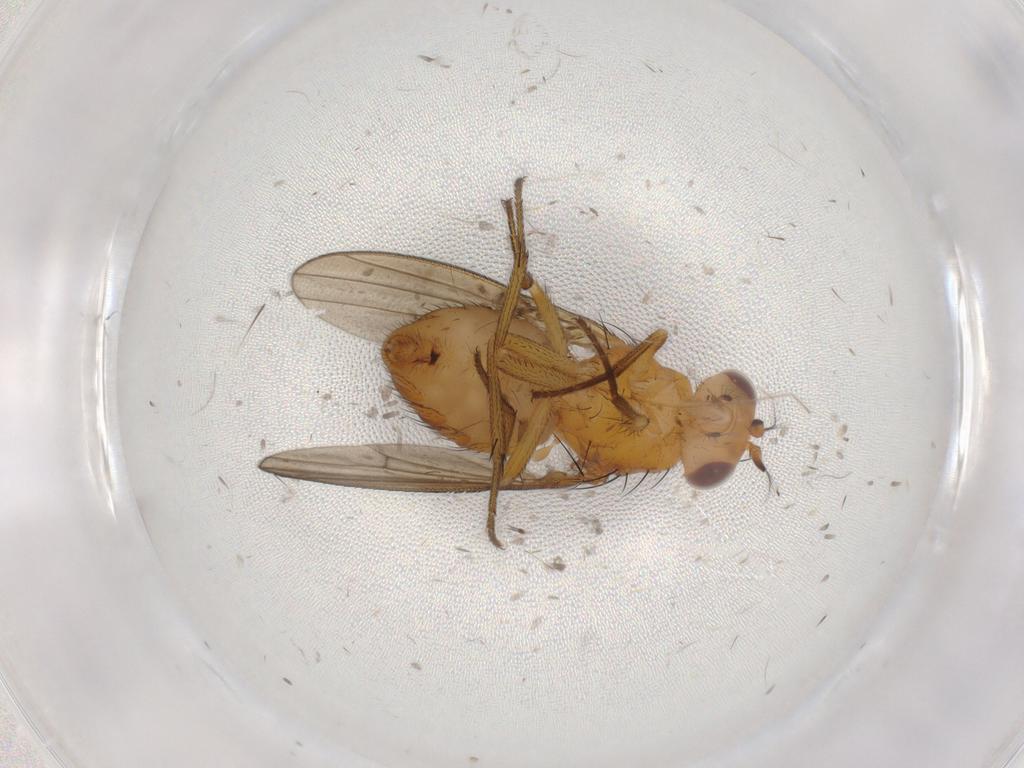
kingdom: Animalia
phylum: Arthropoda
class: Insecta
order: Diptera
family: Lauxaniidae
